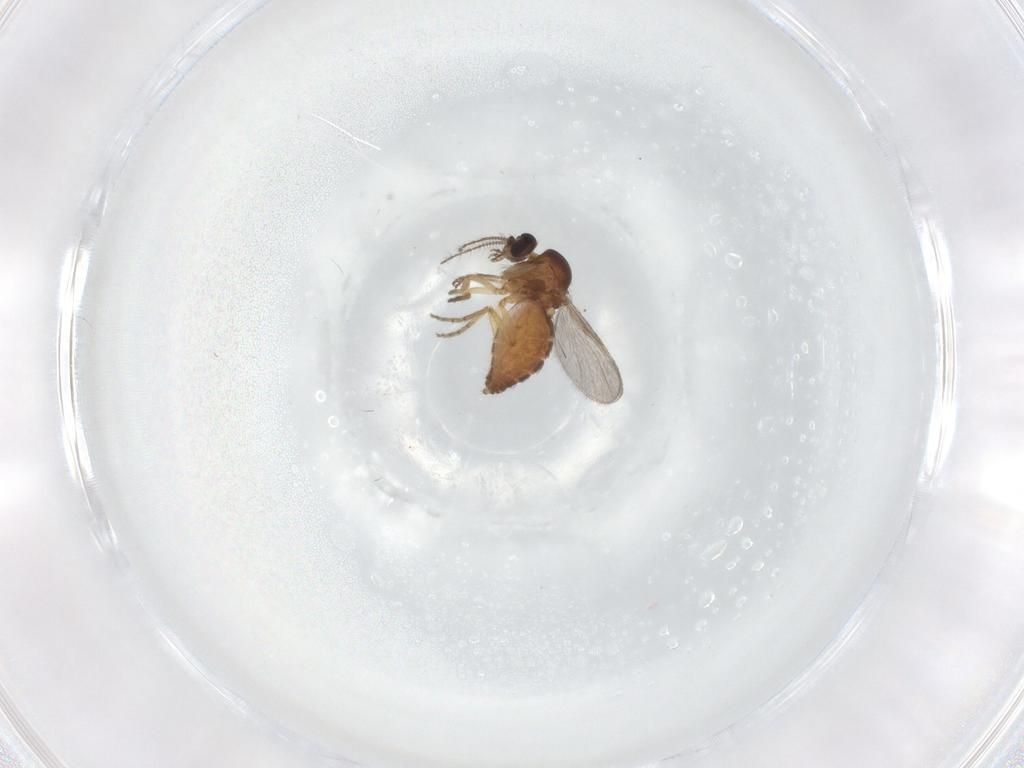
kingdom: Animalia
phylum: Arthropoda
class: Insecta
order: Diptera
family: Ceratopogonidae
